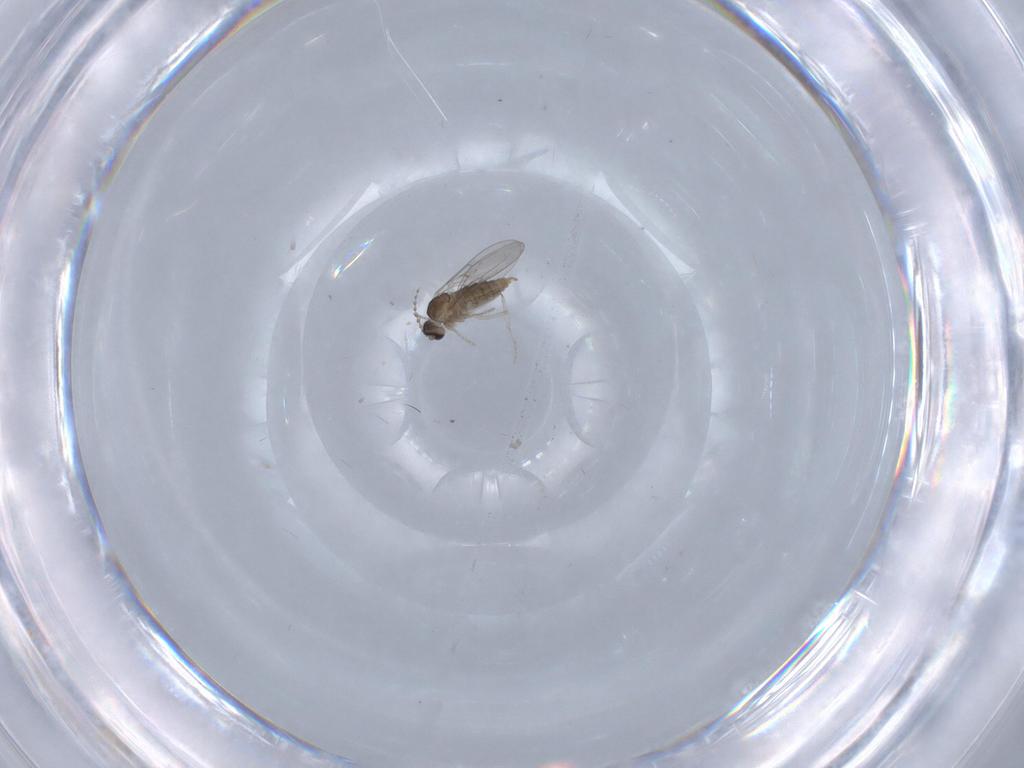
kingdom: Animalia
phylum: Arthropoda
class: Insecta
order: Diptera
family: Cecidomyiidae
